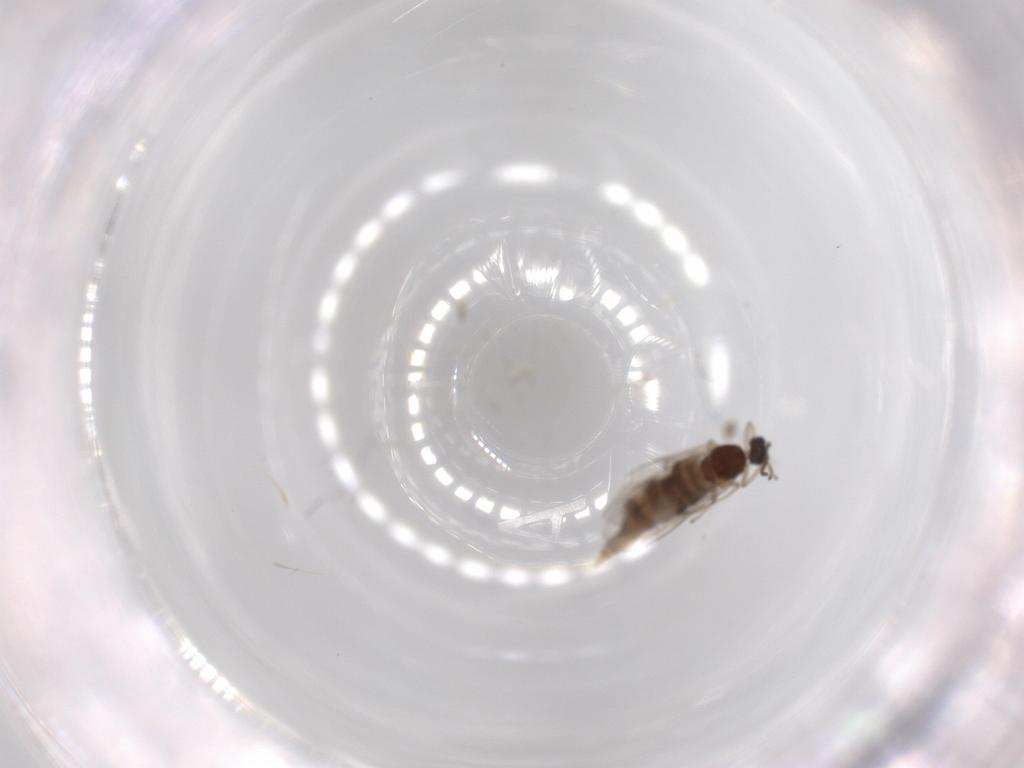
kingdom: Animalia
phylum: Arthropoda
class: Insecta
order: Diptera
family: Cecidomyiidae
